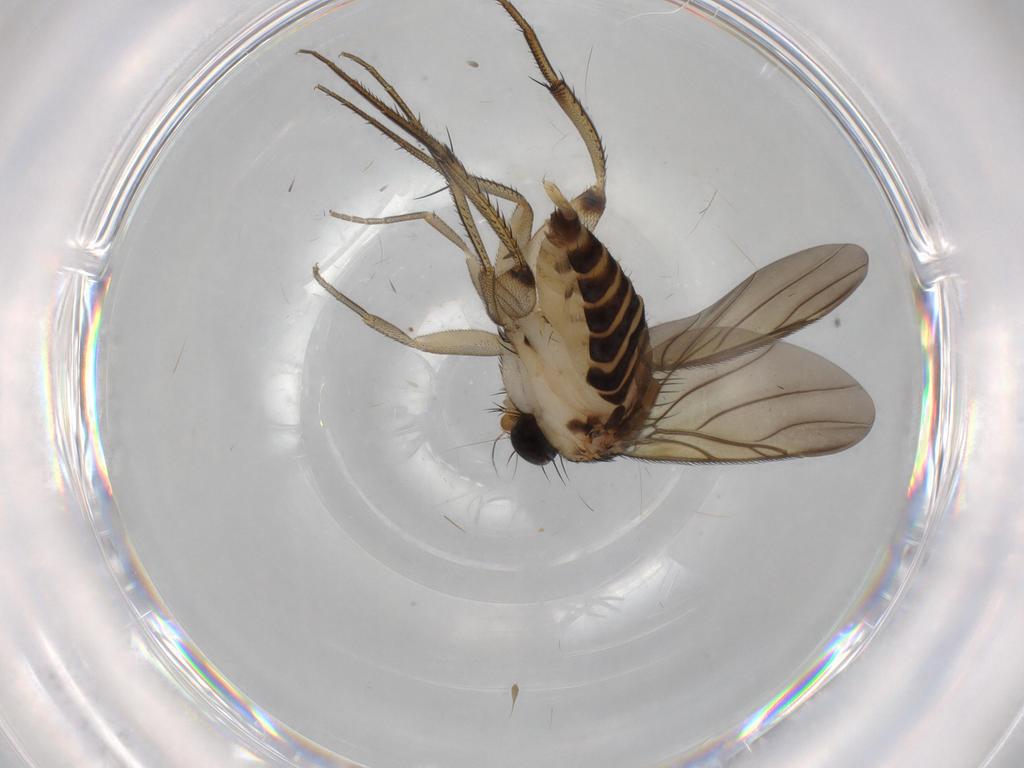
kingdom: Animalia
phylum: Arthropoda
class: Insecta
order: Diptera
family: Phoridae
